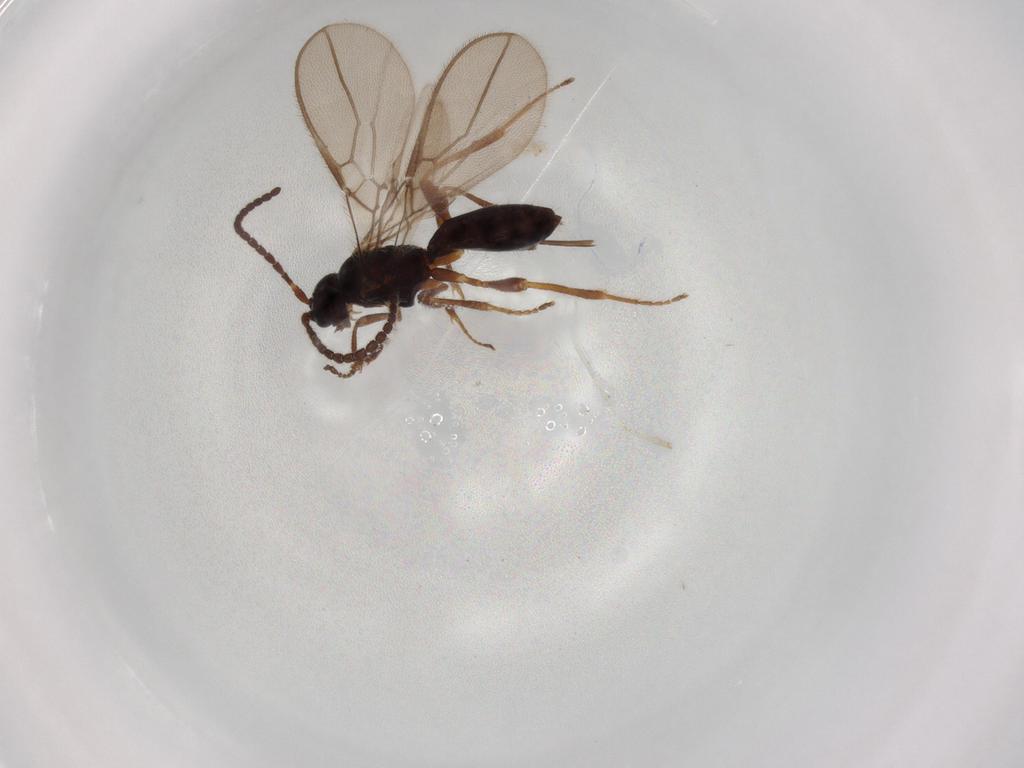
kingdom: Animalia
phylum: Arthropoda
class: Insecta
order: Hymenoptera
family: Braconidae
